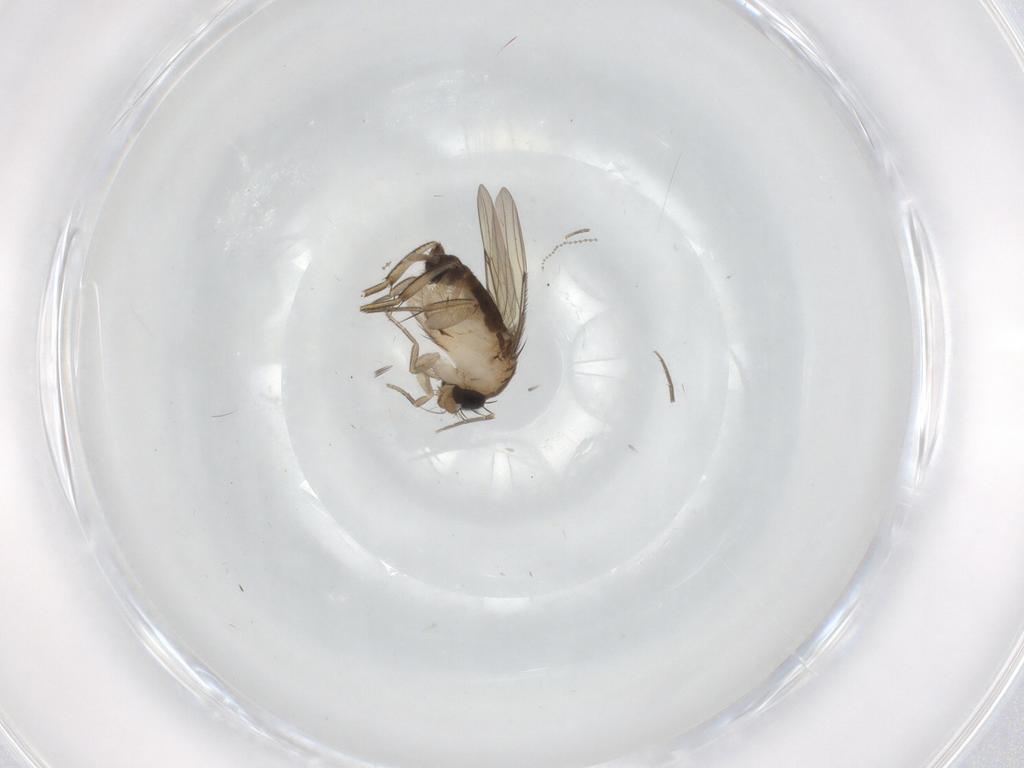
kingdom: Animalia
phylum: Arthropoda
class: Insecta
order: Diptera
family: Phoridae
